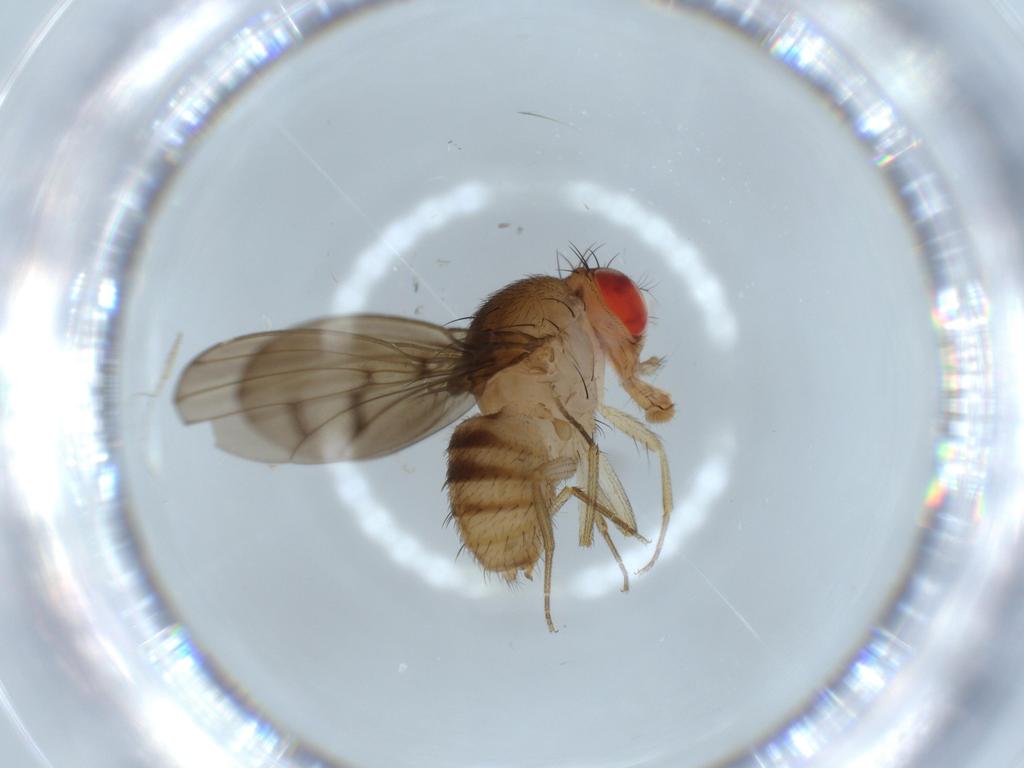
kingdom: Animalia
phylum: Arthropoda
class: Insecta
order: Diptera
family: Drosophilidae
